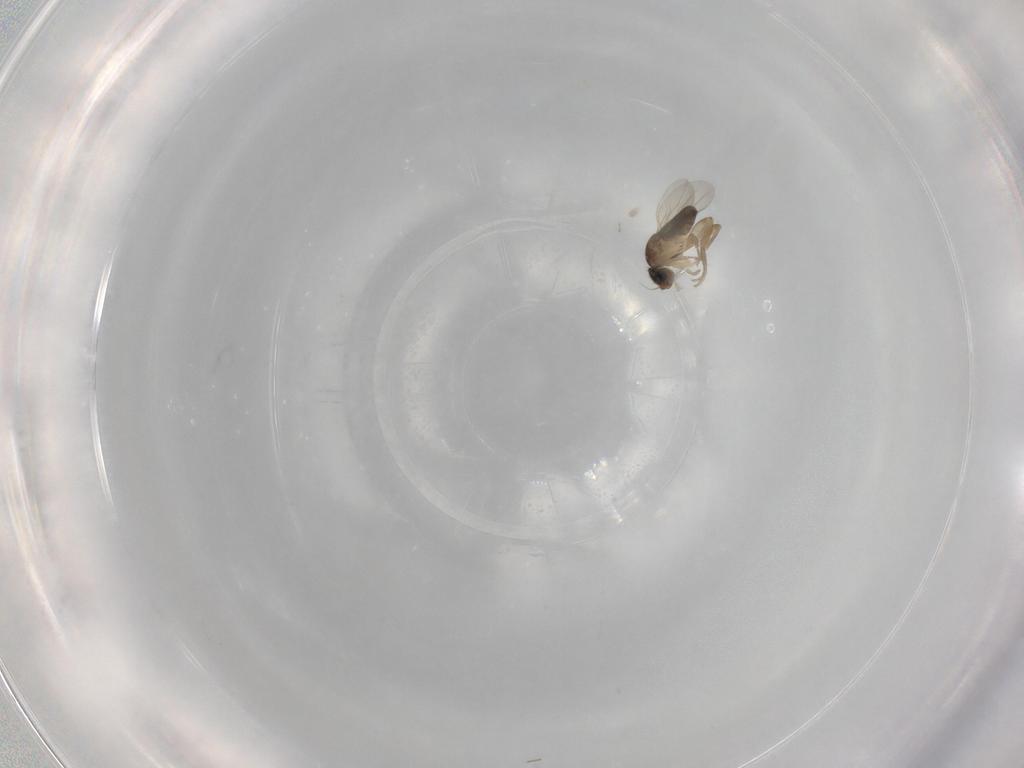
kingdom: Animalia
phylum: Arthropoda
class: Insecta
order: Diptera
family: Phoridae
